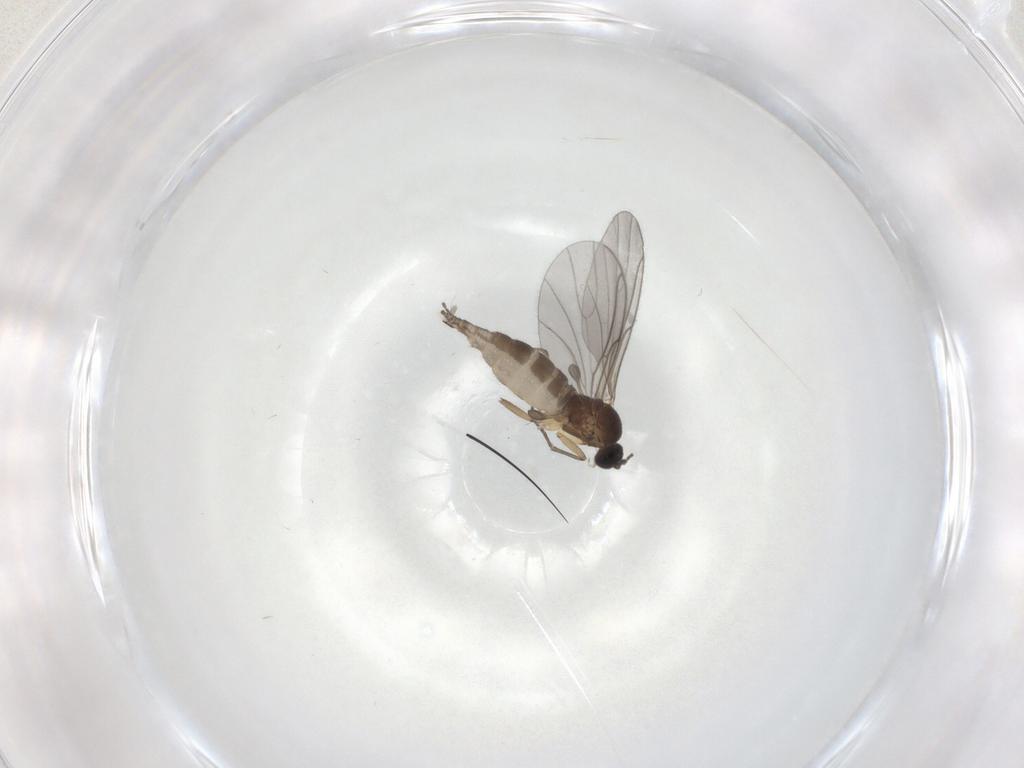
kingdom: Animalia
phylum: Arthropoda
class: Insecta
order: Diptera
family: Sciaridae
